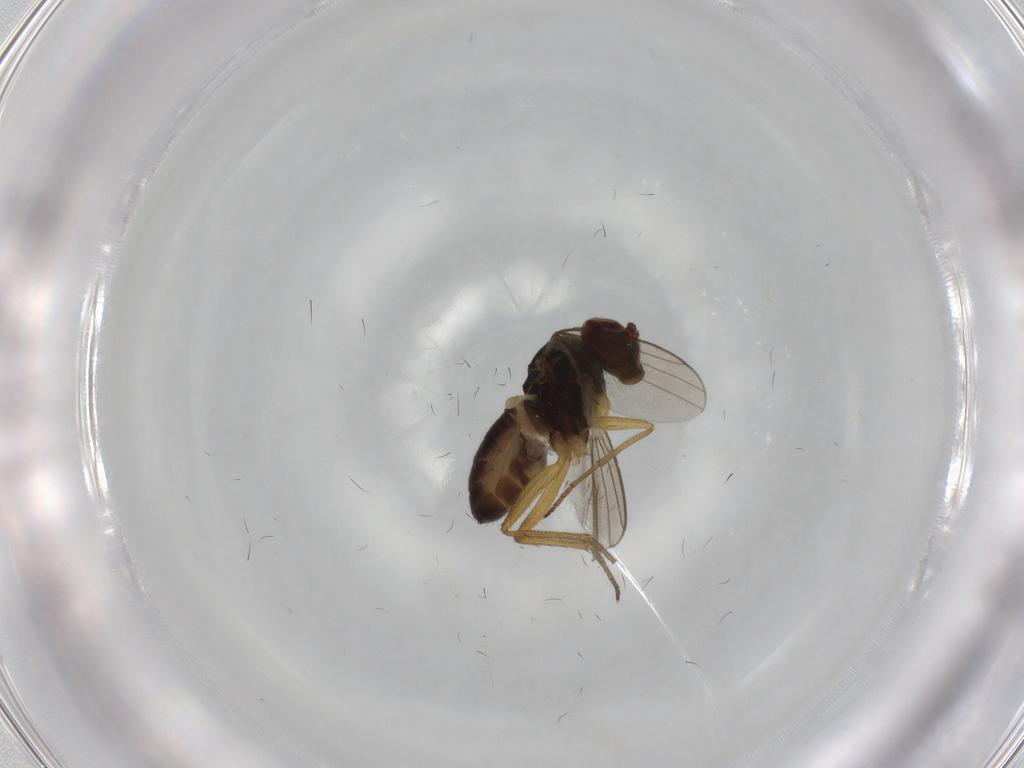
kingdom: Animalia
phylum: Arthropoda
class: Insecta
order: Diptera
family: Dolichopodidae
